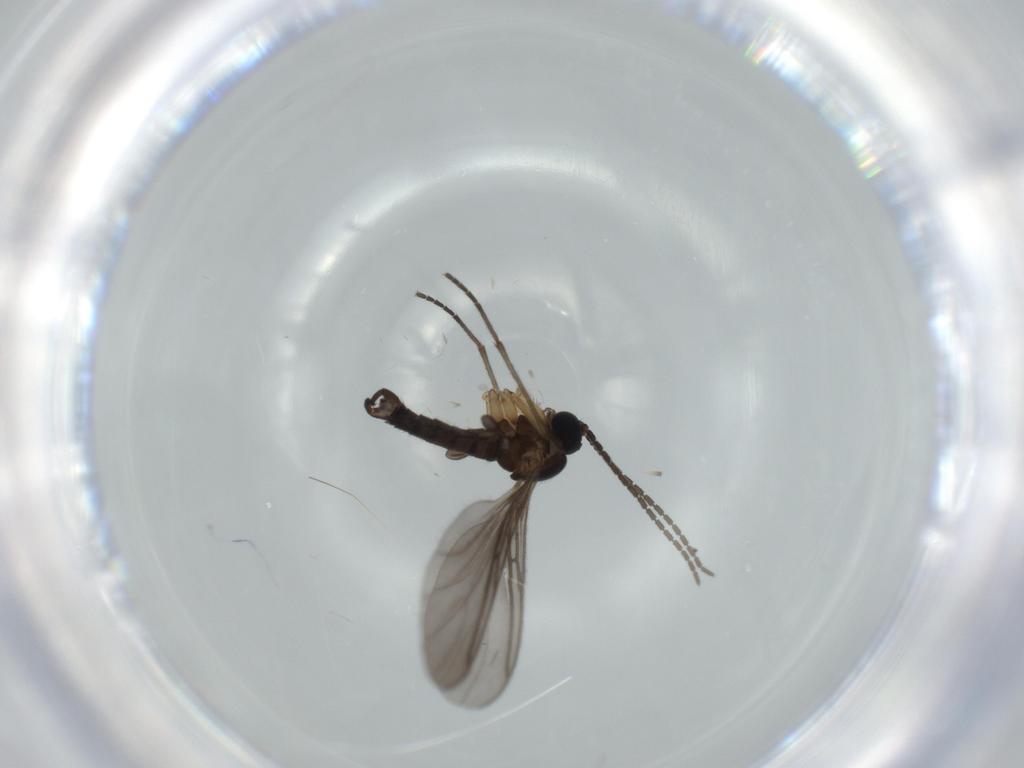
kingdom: Animalia
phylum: Arthropoda
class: Insecta
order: Diptera
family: Sciaridae
